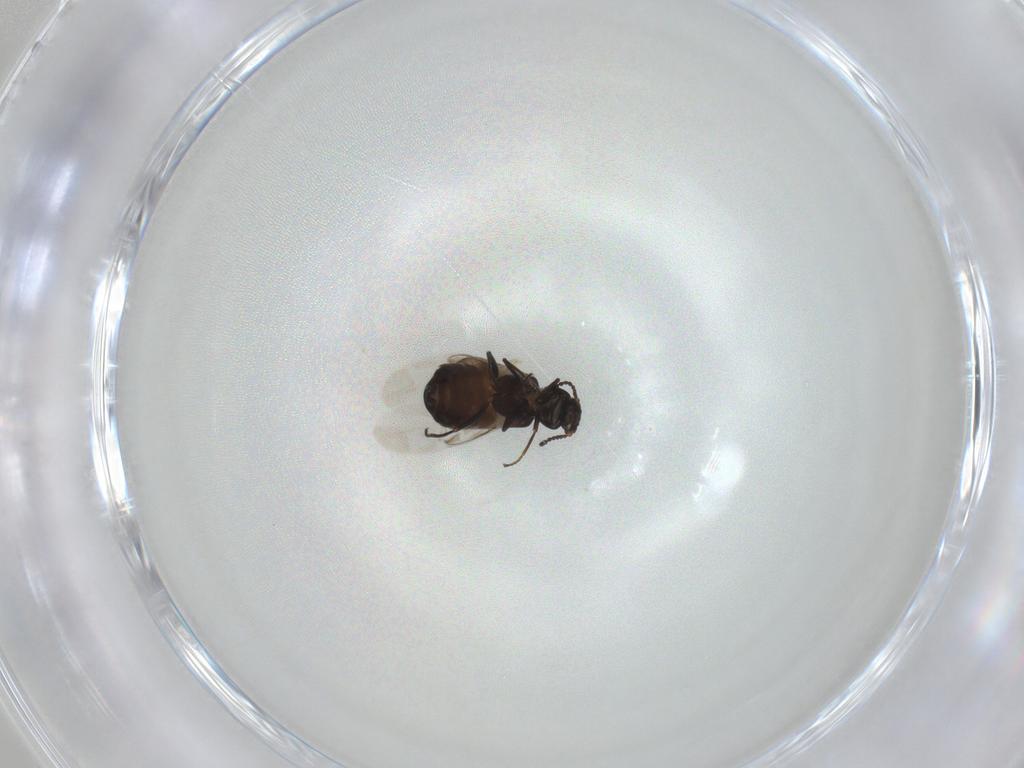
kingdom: Animalia
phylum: Arthropoda
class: Insecta
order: Coleoptera
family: Melyridae
